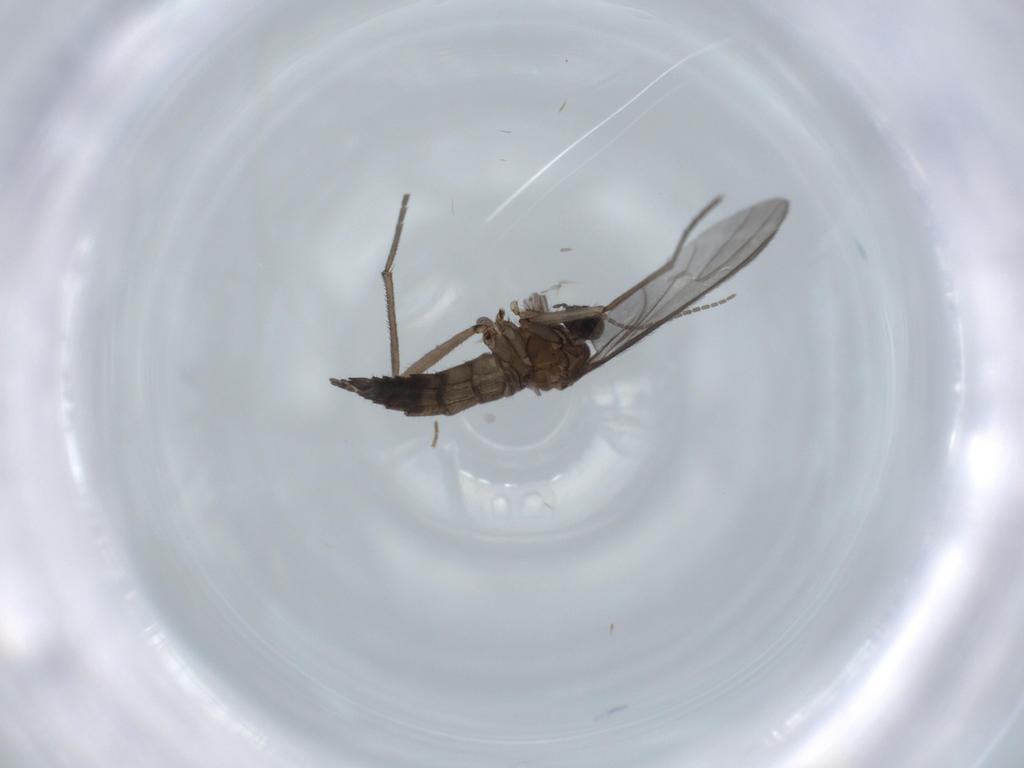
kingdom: Animalia
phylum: Arthropoda
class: Insecta
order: Diptera
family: Sciaridae
